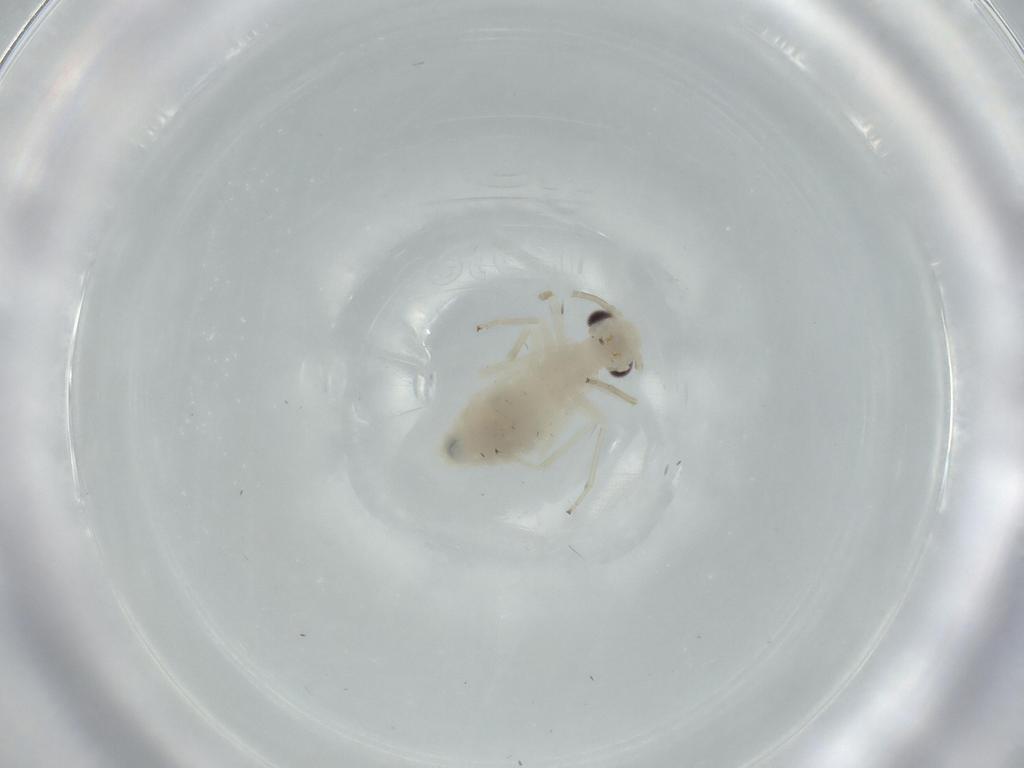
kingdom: Animalia
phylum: Arthropoda
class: Insecta
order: Psocodea
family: Caeciliusidae
